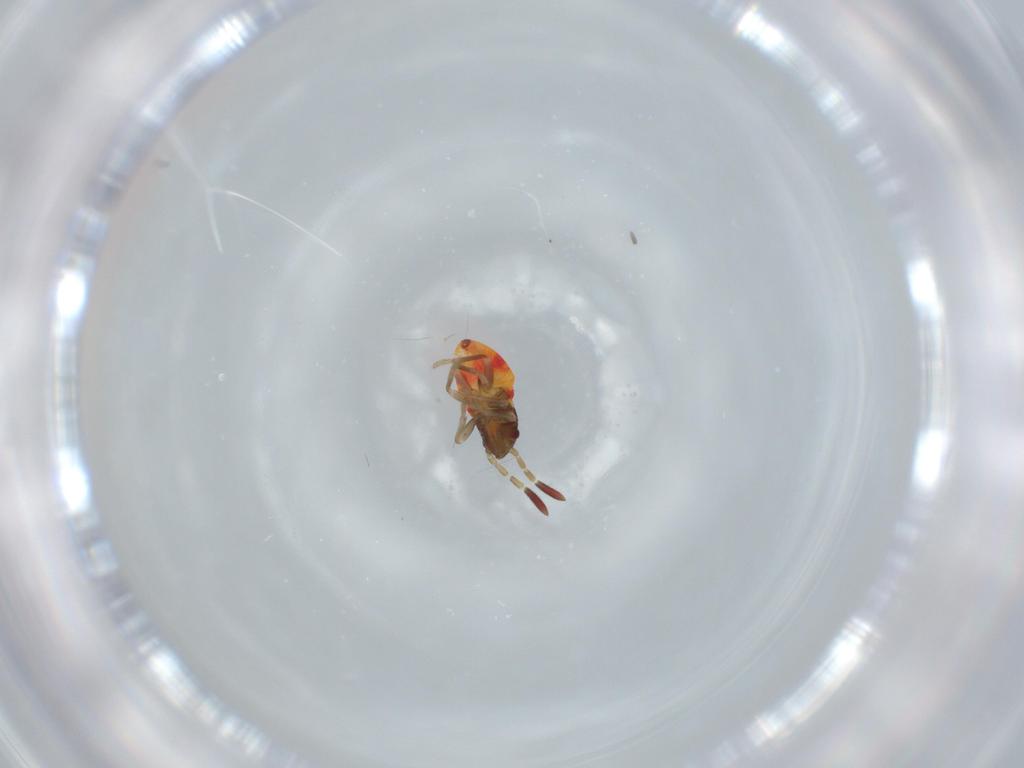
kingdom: Animalia
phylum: Arthropoda
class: Insecta
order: Hemiptera
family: Rhyparochromidae
